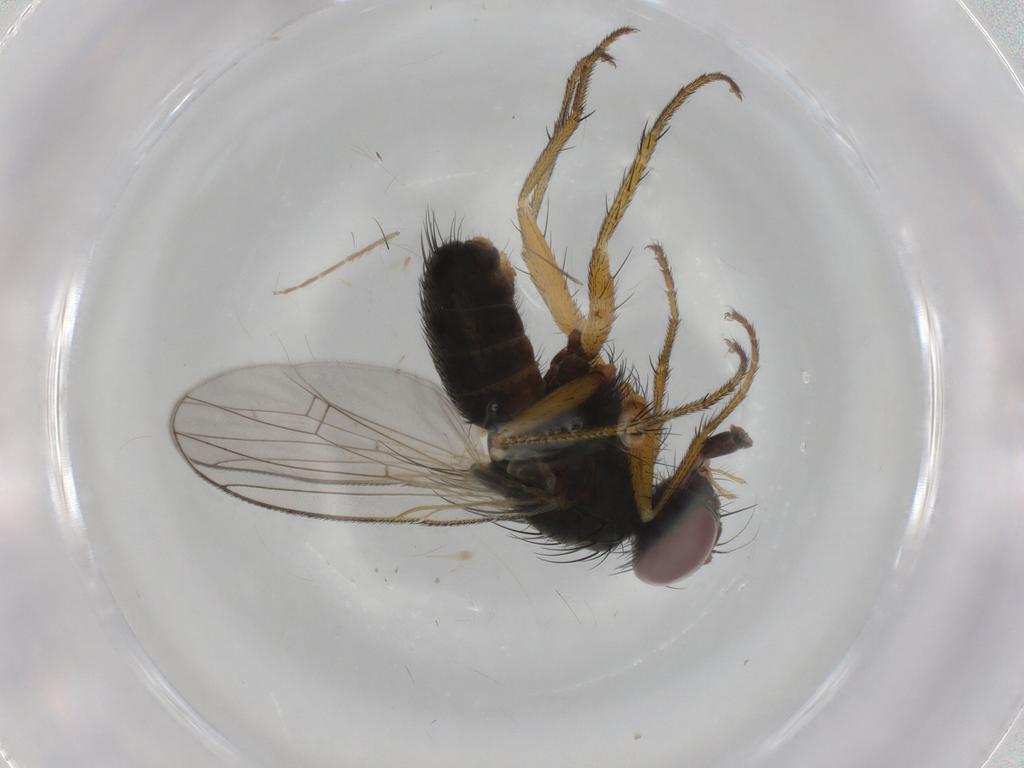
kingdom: Animalia
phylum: Arthropoda
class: Insecta
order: Diptera
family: Muscidae
